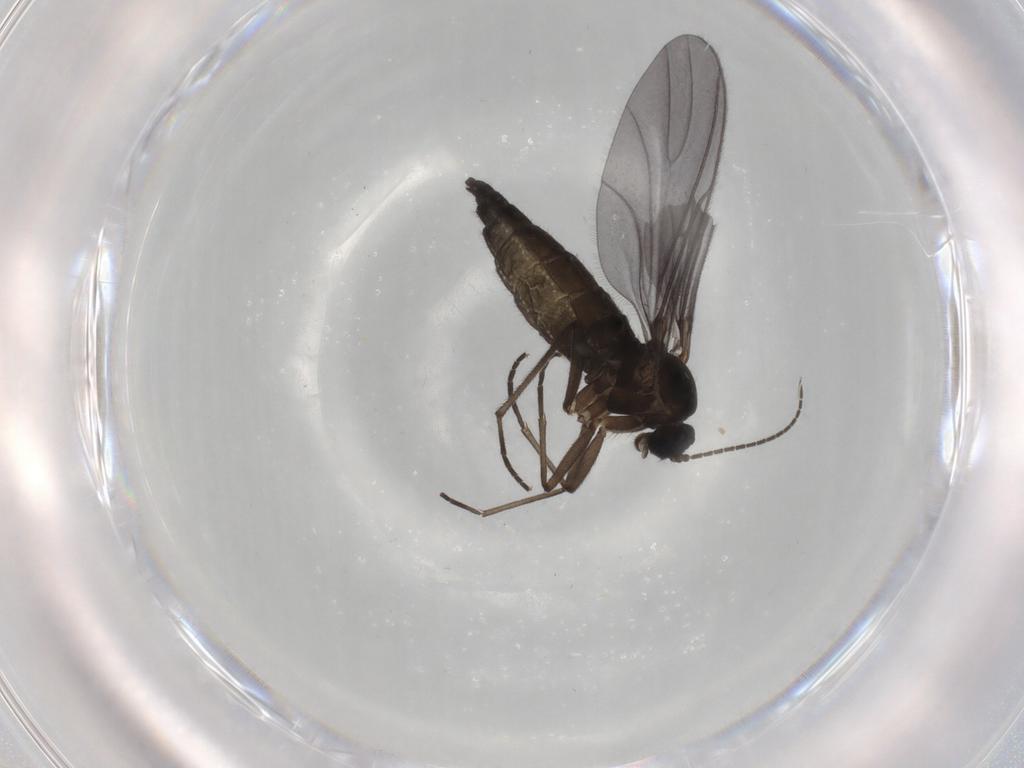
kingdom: Animalia
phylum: Arthropoda
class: Insecta
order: Diptera
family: Sciaridae
